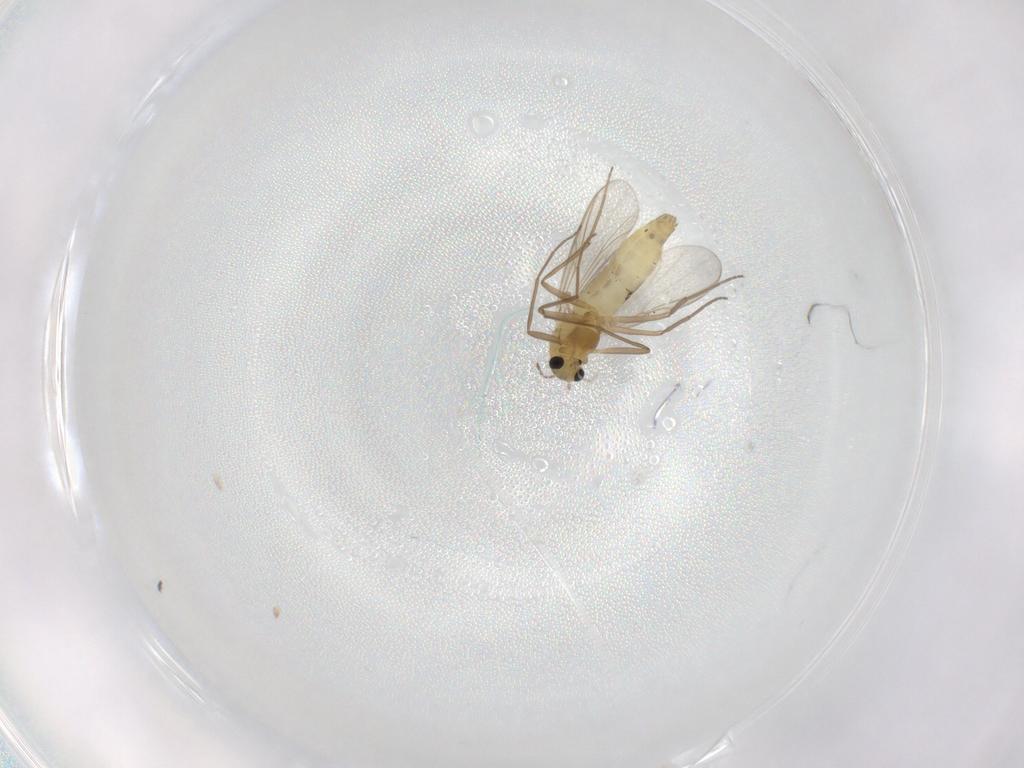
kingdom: Animalia
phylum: Arthropoda
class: Insecta
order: Diptera
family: Chironomidae
